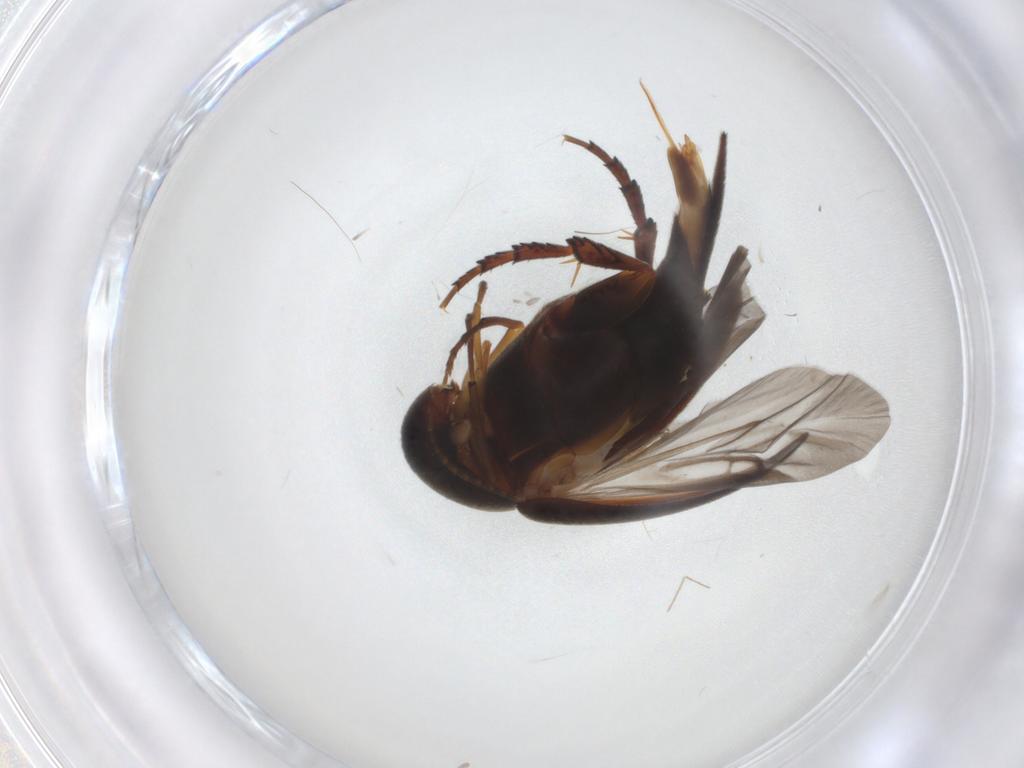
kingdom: Animalia
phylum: Arthropoda
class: Insecta
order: Coleoptera
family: Mordellidae
